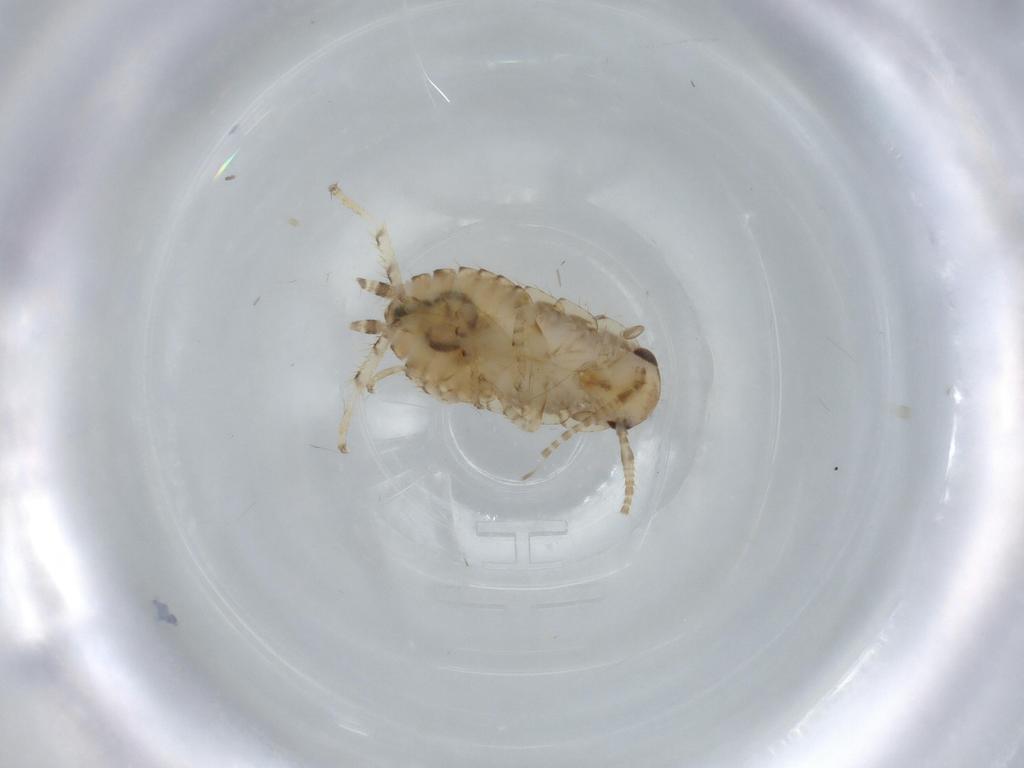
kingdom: Animalia
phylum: Arthropoda
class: Insecta
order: Blattodea
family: Ectobiidae
